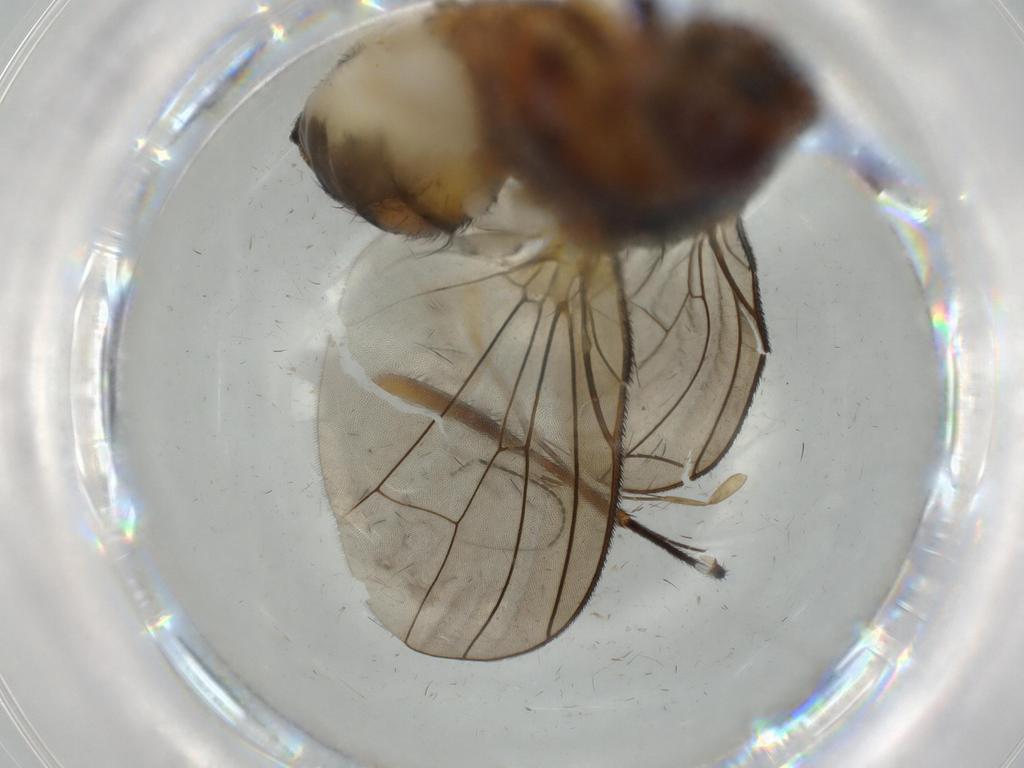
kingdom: Animalia
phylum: Arthropoda
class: Insecta
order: Diptera
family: Anthomyiidae
